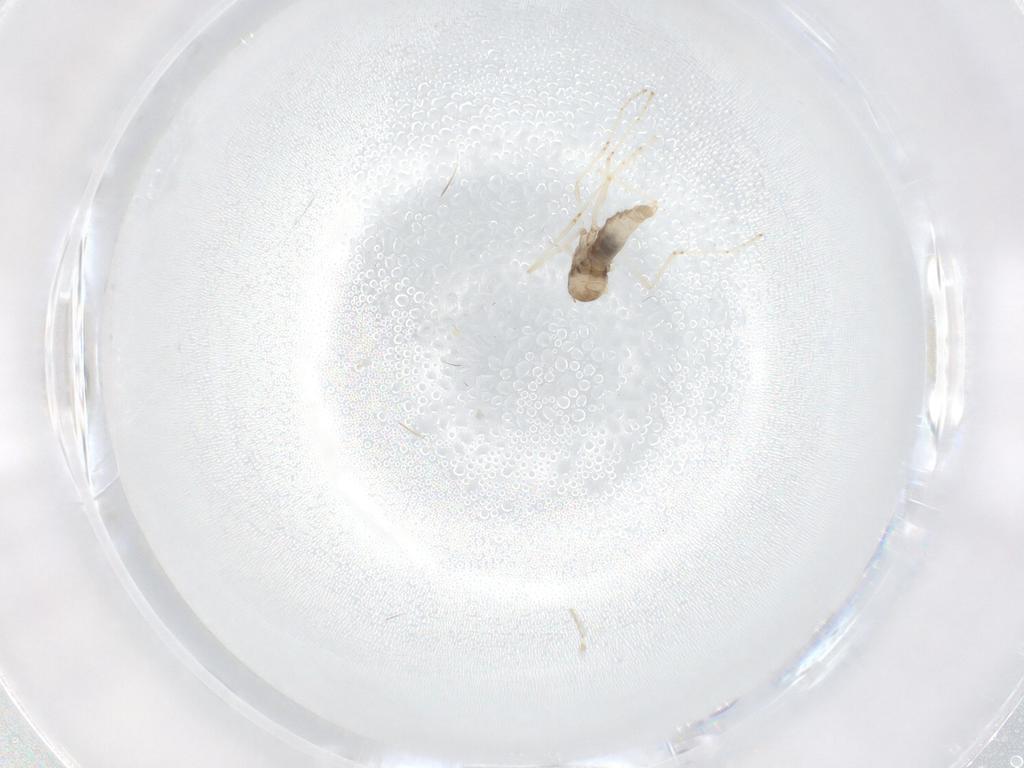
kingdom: Animalia
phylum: Arthropoda
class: Insecta
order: Diptera
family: Cecidomyiidae
